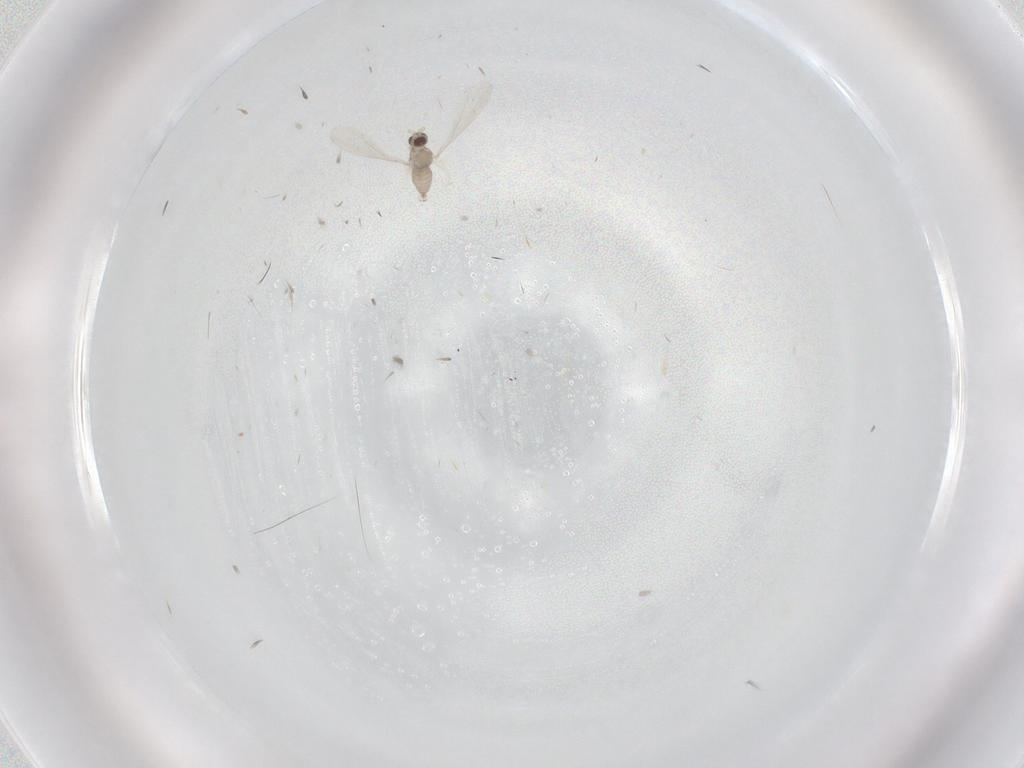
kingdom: Animalia
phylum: Arthropoda
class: Insecta
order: Diptera
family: Cecidomyiidae
